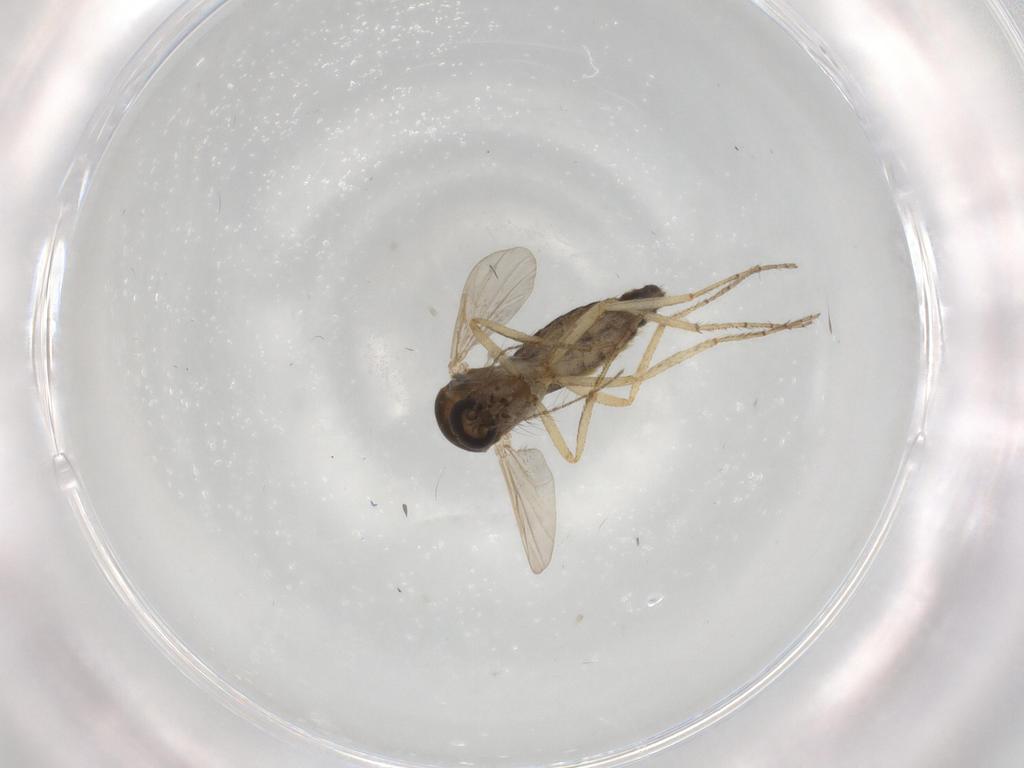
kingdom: Animalia
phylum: Arthropoda
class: Insecta
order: Diptera
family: Ceratopogonidae
